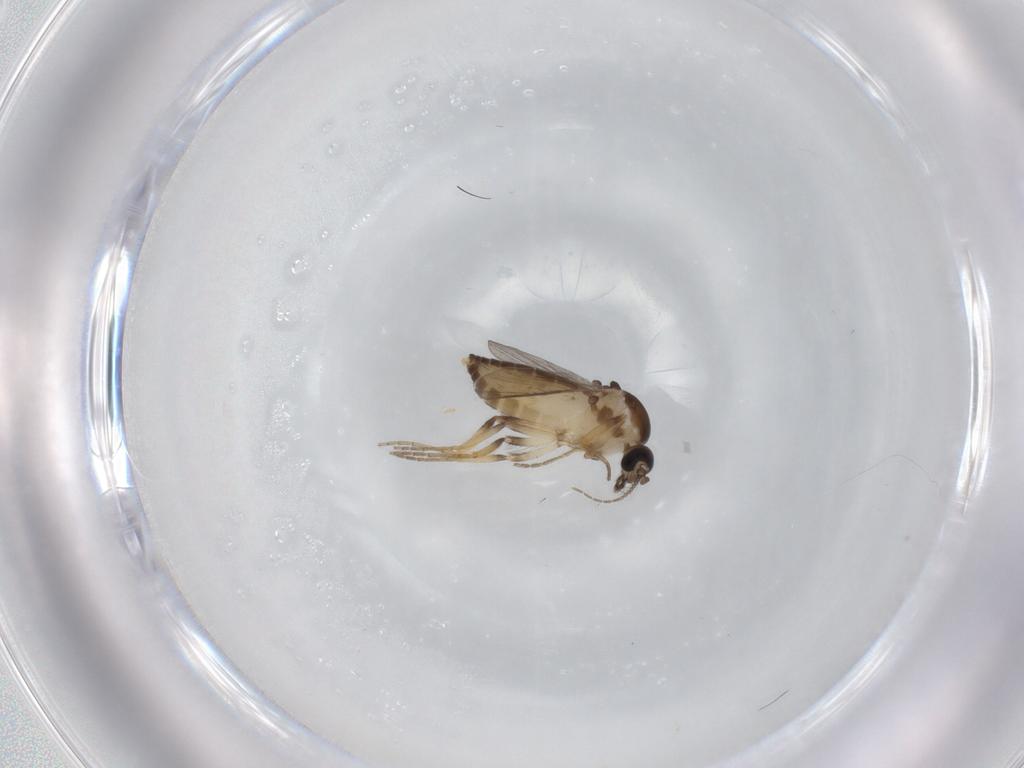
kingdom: Animalia
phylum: Arthropoda
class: Insecta
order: Diptera
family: Ceratopogonidae
